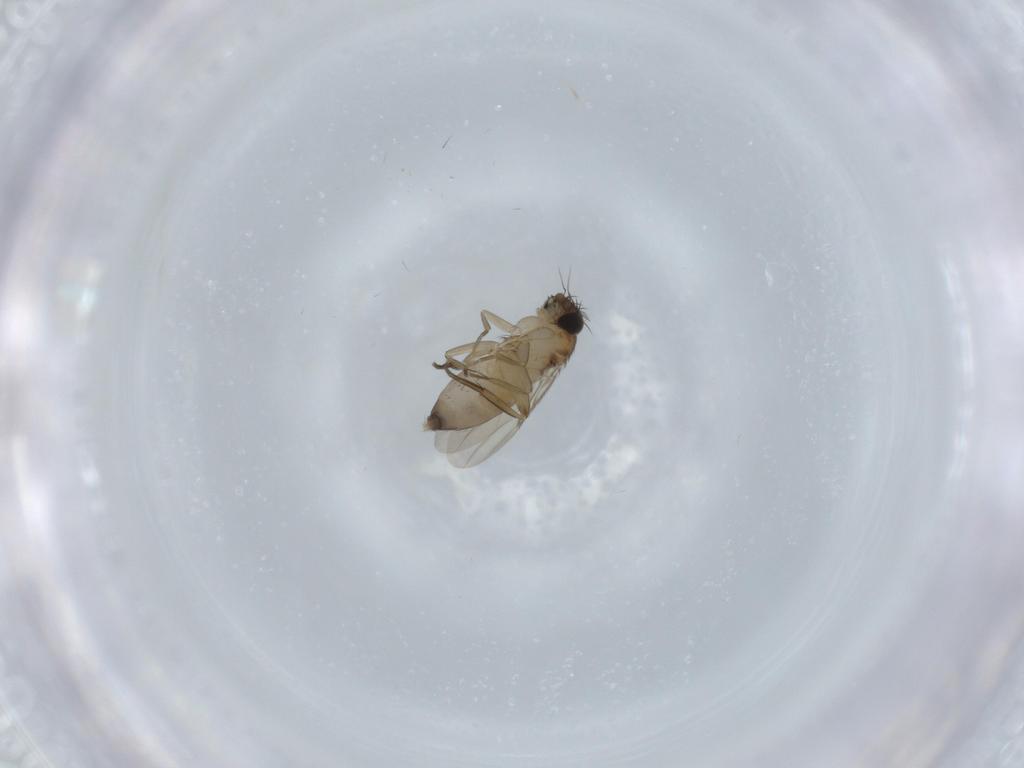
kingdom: Animalia
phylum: Arthropoda
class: Insecta
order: Diptera
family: Phoridae
